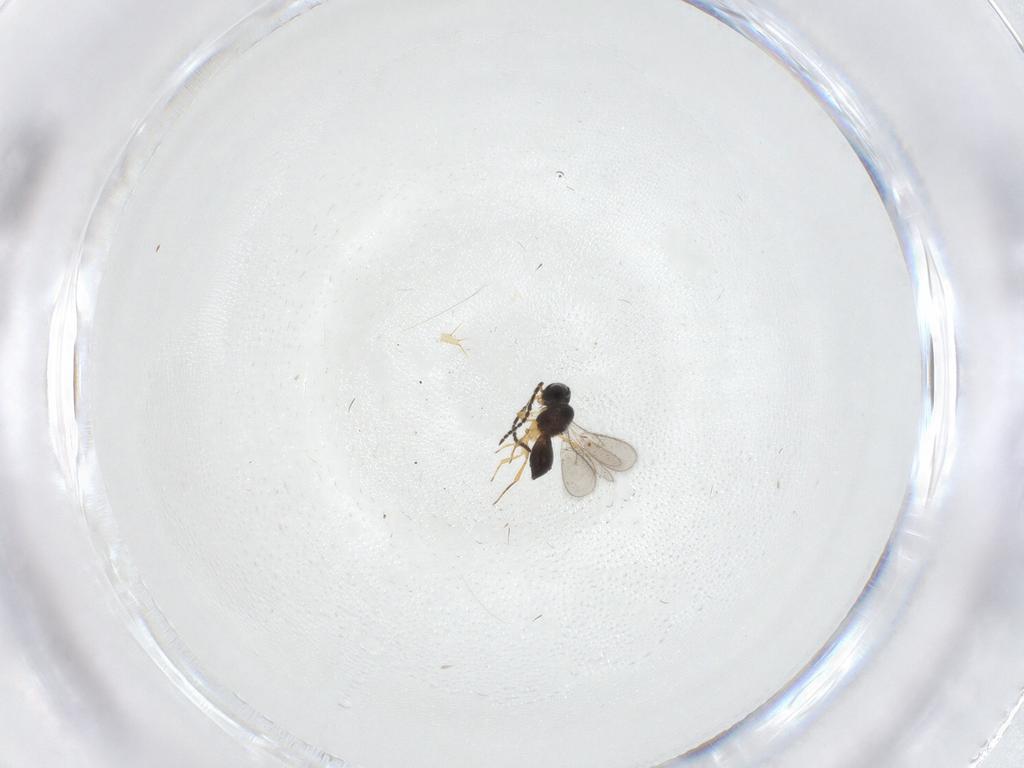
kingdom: Animalia
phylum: Arthropoda
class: Insecta
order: Hymenoptera
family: Scelionidae
